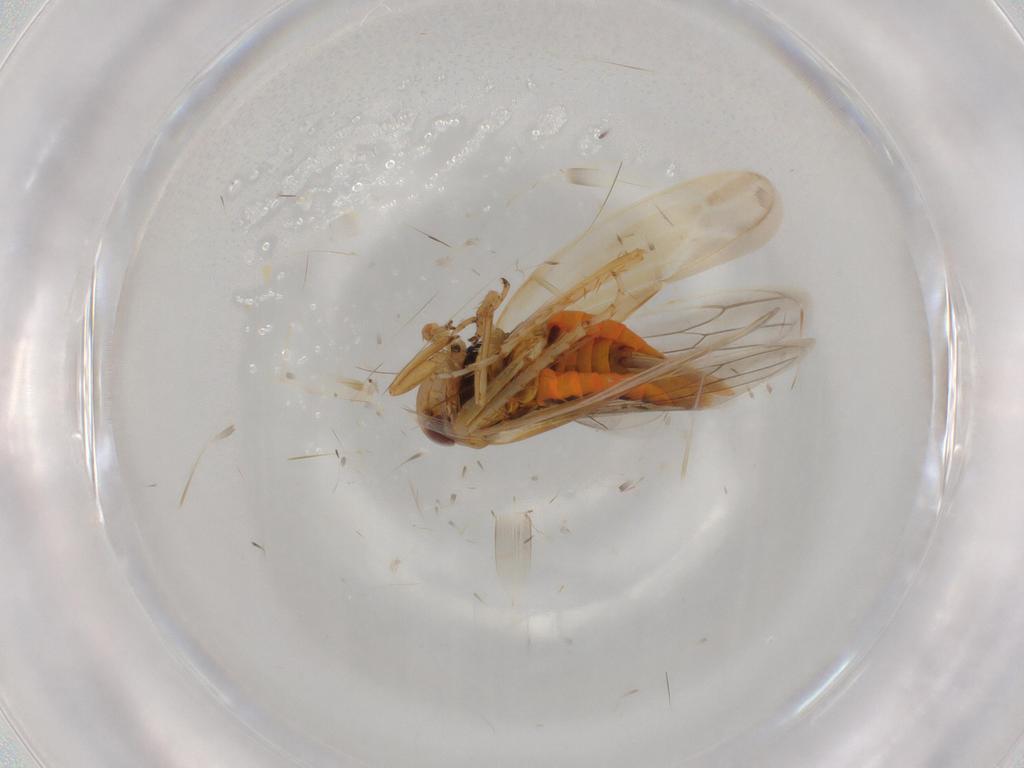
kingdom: Animalia
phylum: Arthropoda
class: Insecta
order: Hemiptera
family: Cicadellidae
